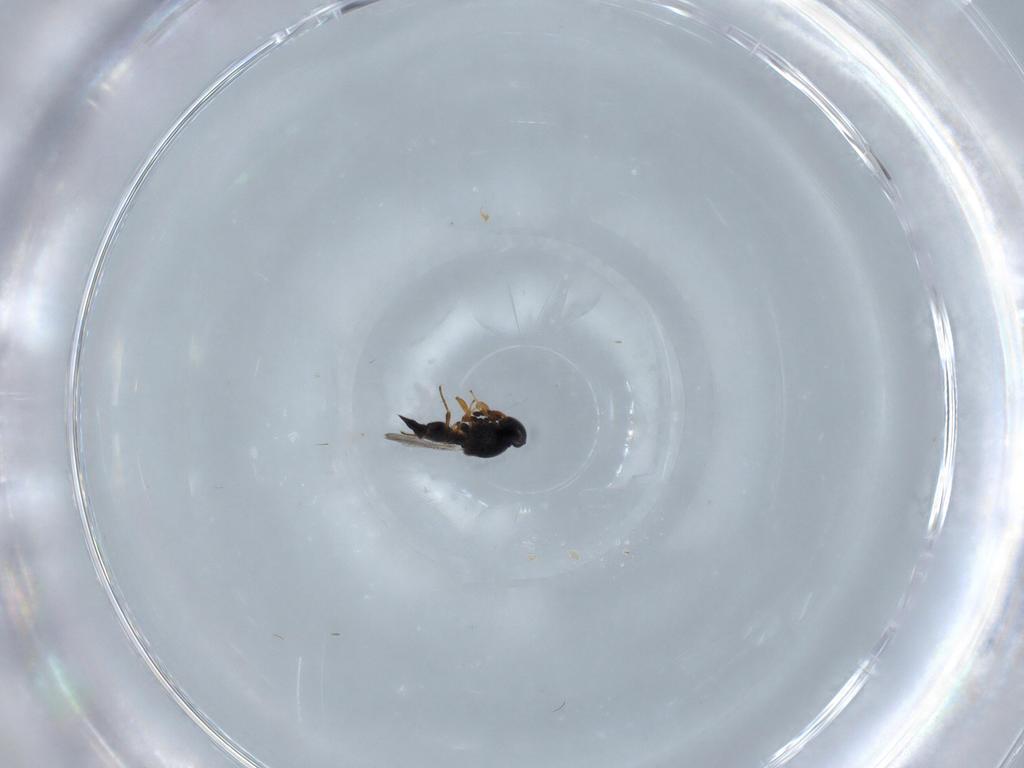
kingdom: Animalia
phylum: Arthropoda
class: Insecta
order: Hymenoptera
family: Platygastridae
